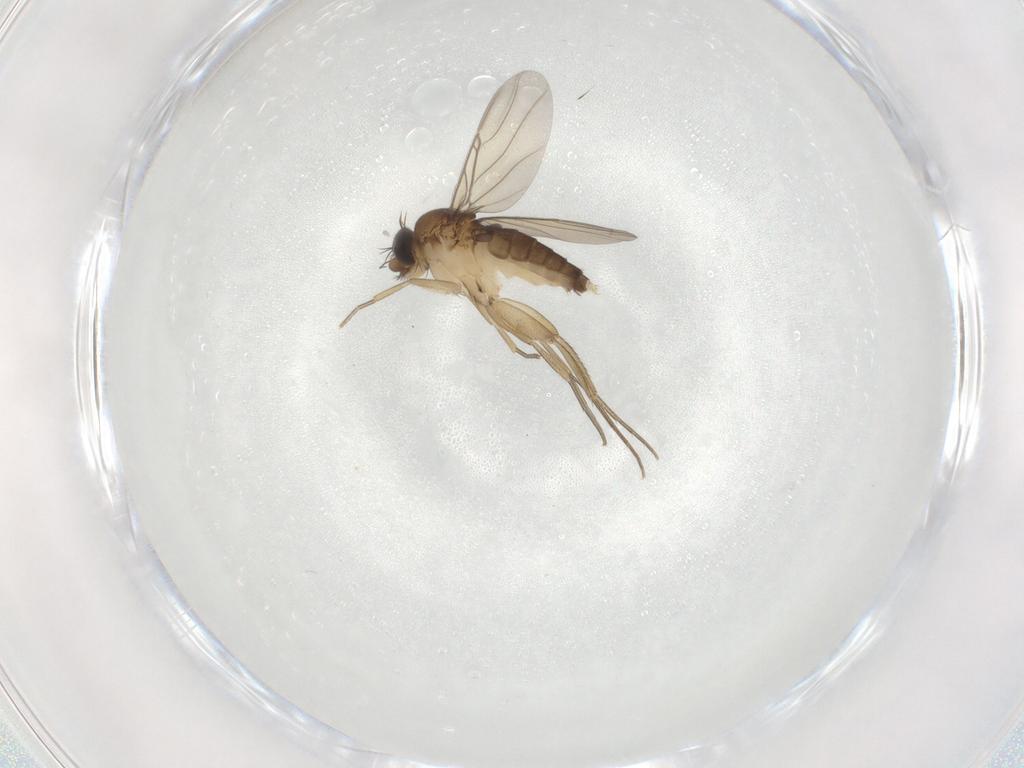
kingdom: Animalia
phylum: Arthropoda
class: Insecta
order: Diptera
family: Phoridae
